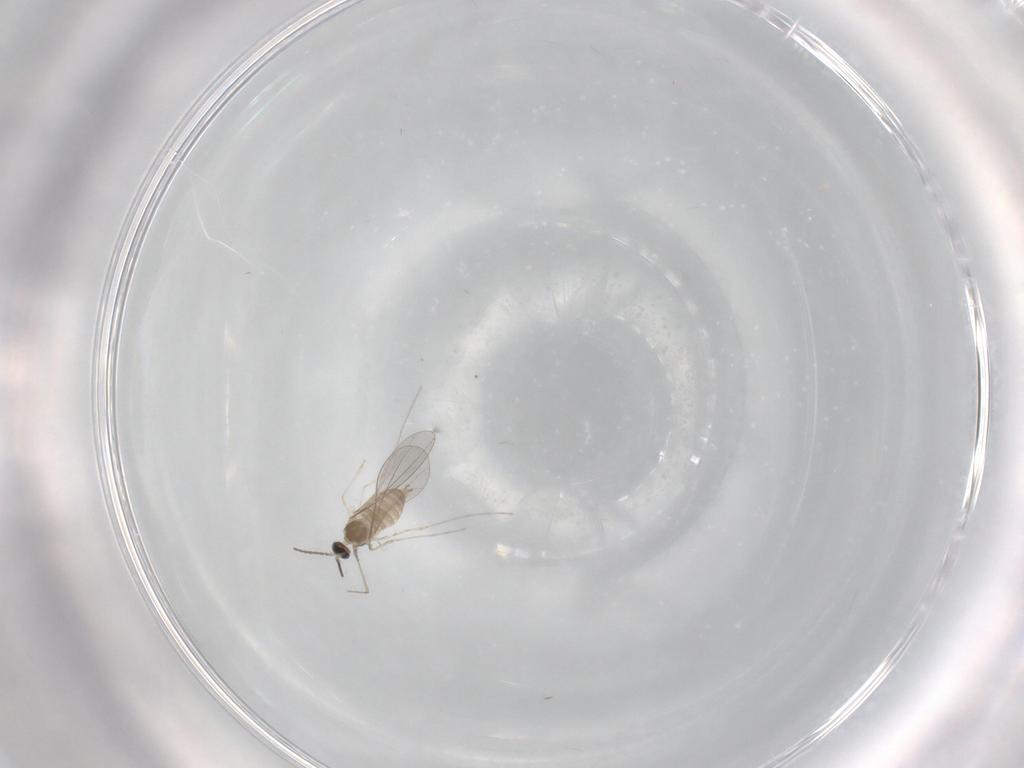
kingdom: Animalia
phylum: Arthropoda
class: Insecta
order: Diptera
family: Cecidomyiidae
